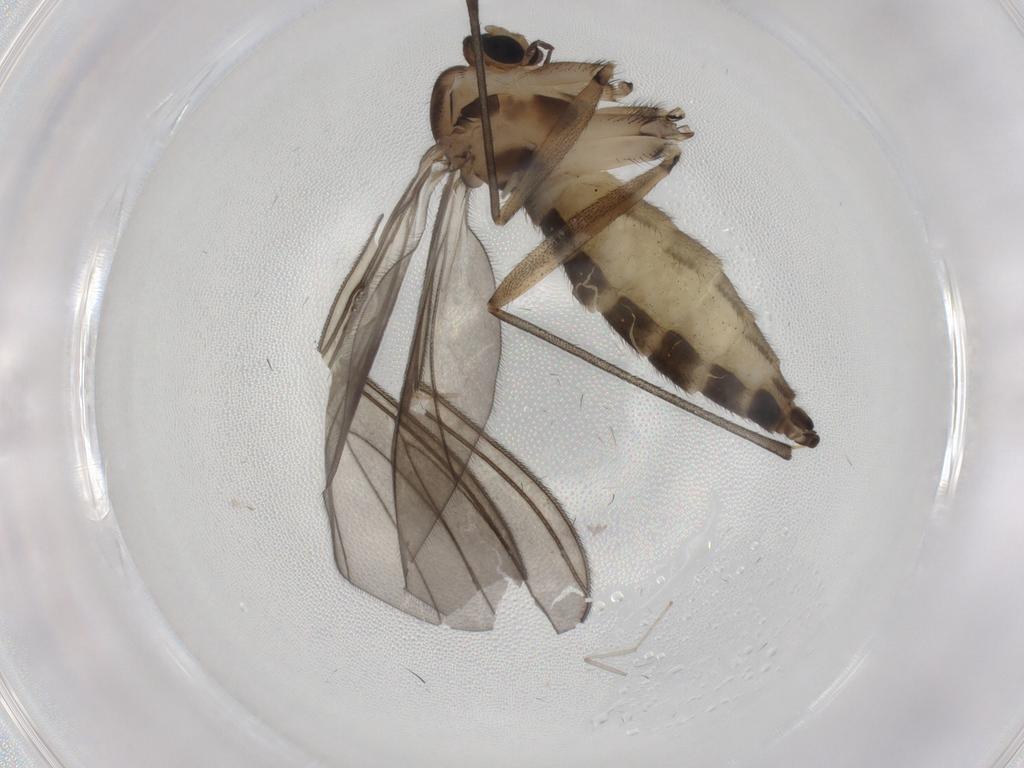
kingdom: Animalia
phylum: Arthropoda
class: Insecta
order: Diptera
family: Sciaridae
